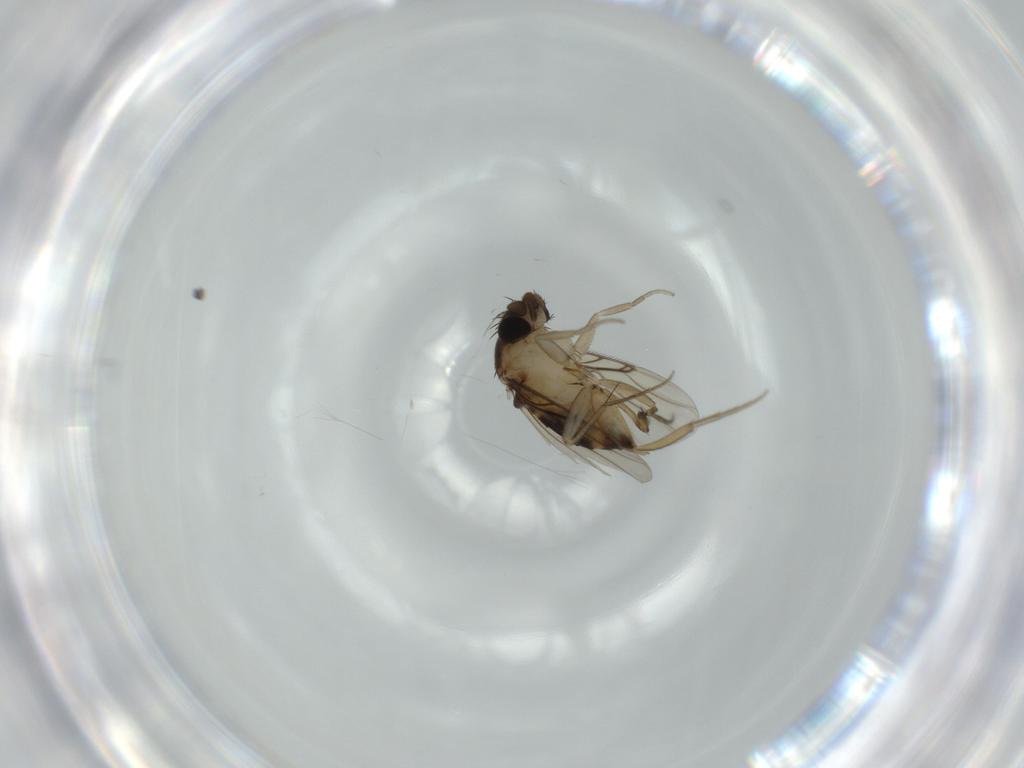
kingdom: Animalia
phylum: Arthropoda
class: Insecta
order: Diptera
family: Phoridae
